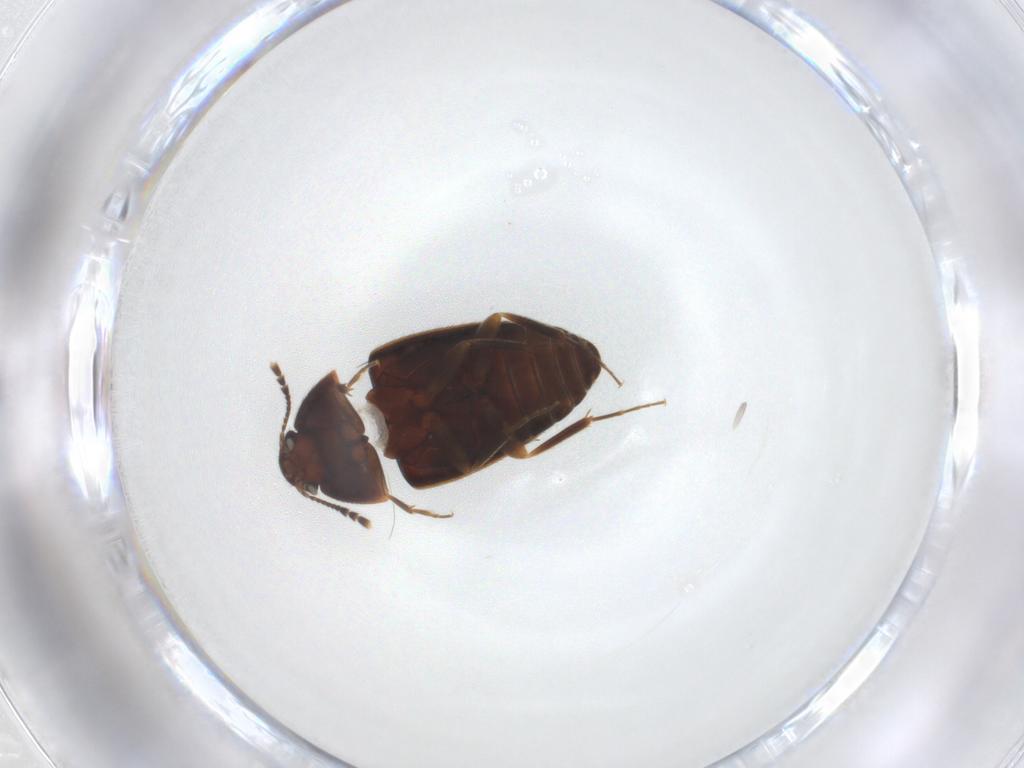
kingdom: Animalia
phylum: Arthropoda
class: Insecta
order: Coleoptera
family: Mycetophagidae
